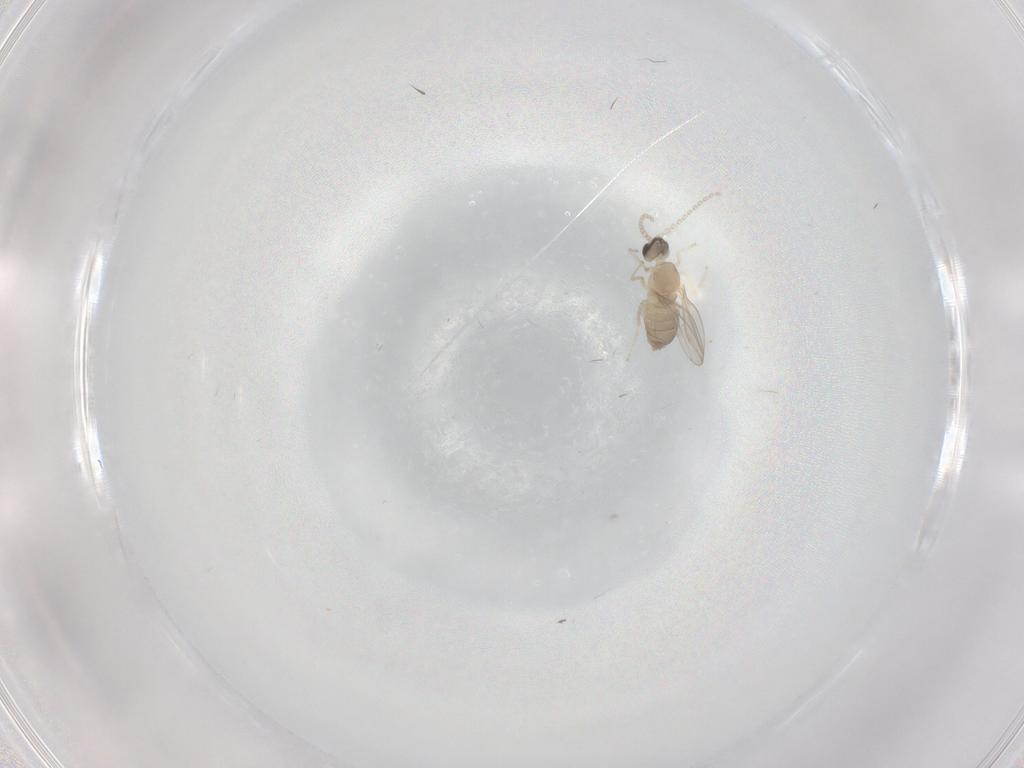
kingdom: Animalia
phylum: Arthropoda
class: Insecta
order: Diptera
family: Cecidomyiidae
